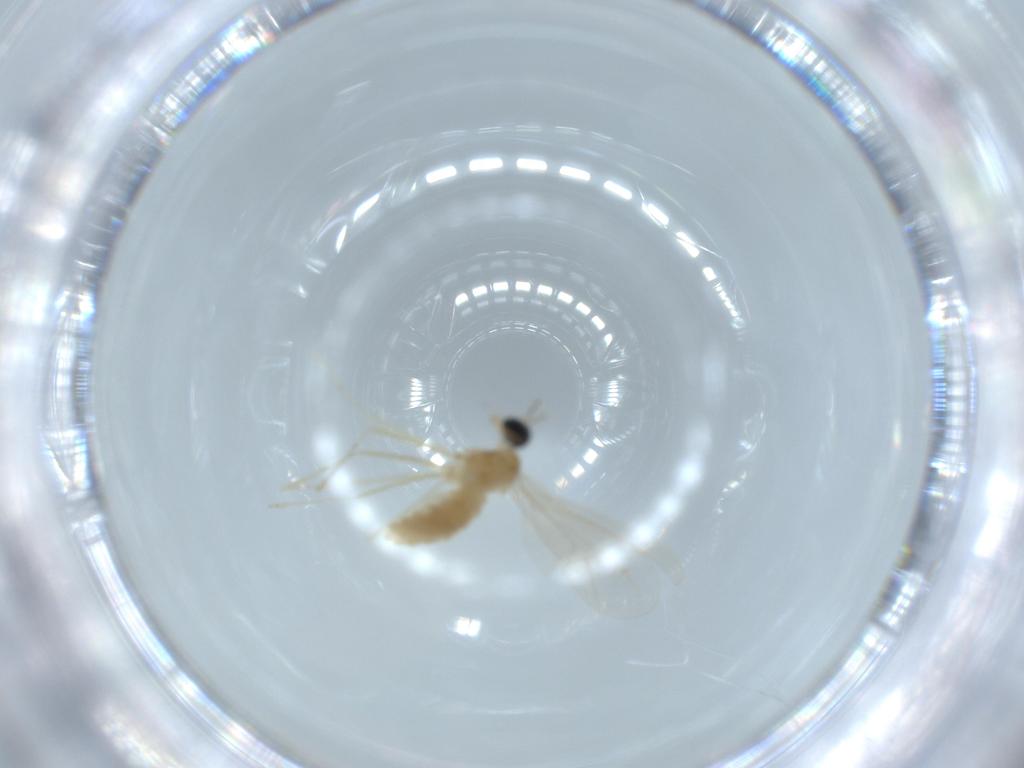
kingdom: Animalia
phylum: Arthropoda
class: Insecta
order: Diptera
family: Cecidomyiidae
